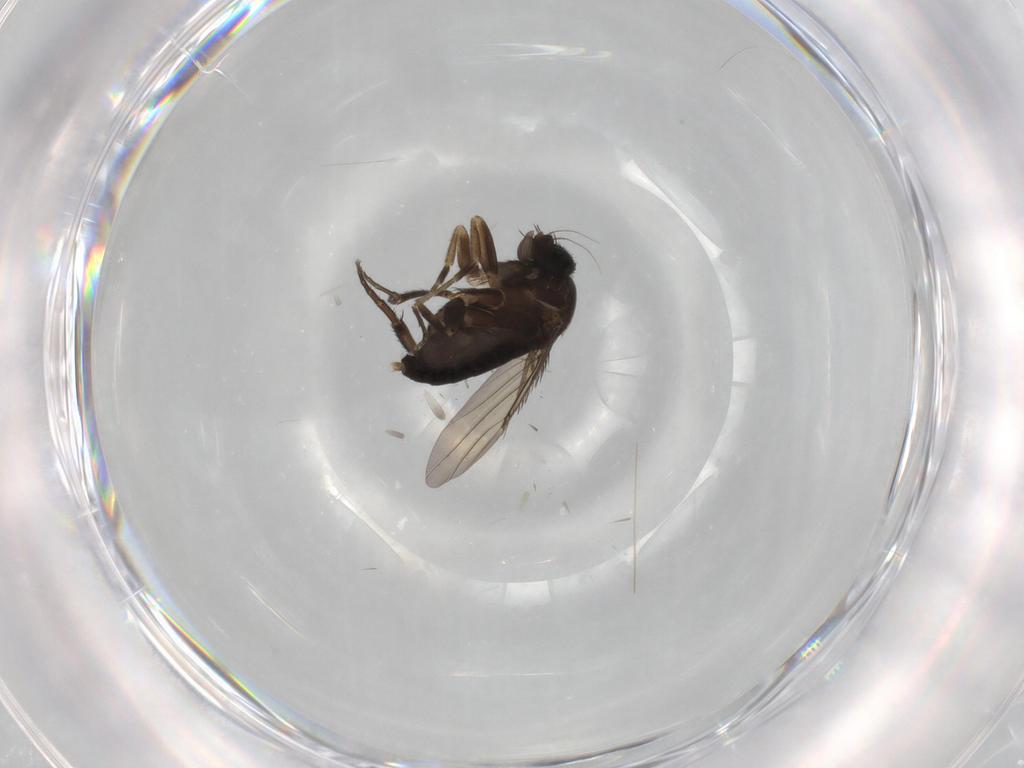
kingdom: Animalia
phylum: Arthropoda
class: Insecta
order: Diptera
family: Phoridae
